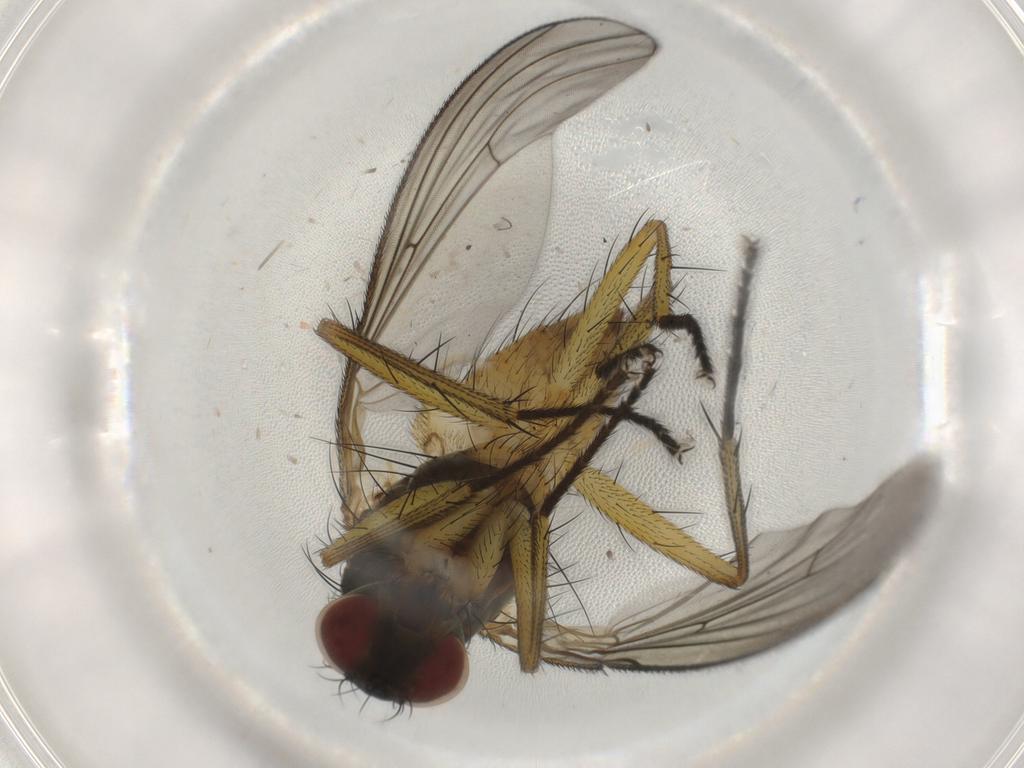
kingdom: Animalia
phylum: Arthropoda
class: Insecta
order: Diptera
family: Muscidae
